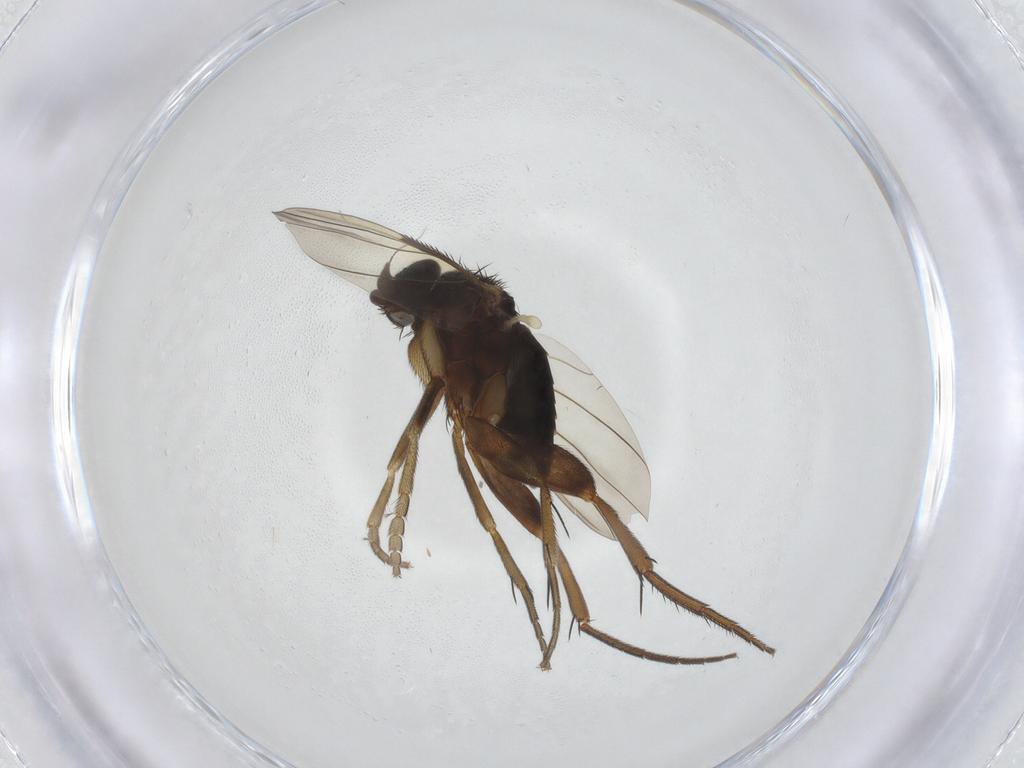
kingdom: Animalia
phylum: Arthropoda
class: Insecta
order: Diptera
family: Phoridae
